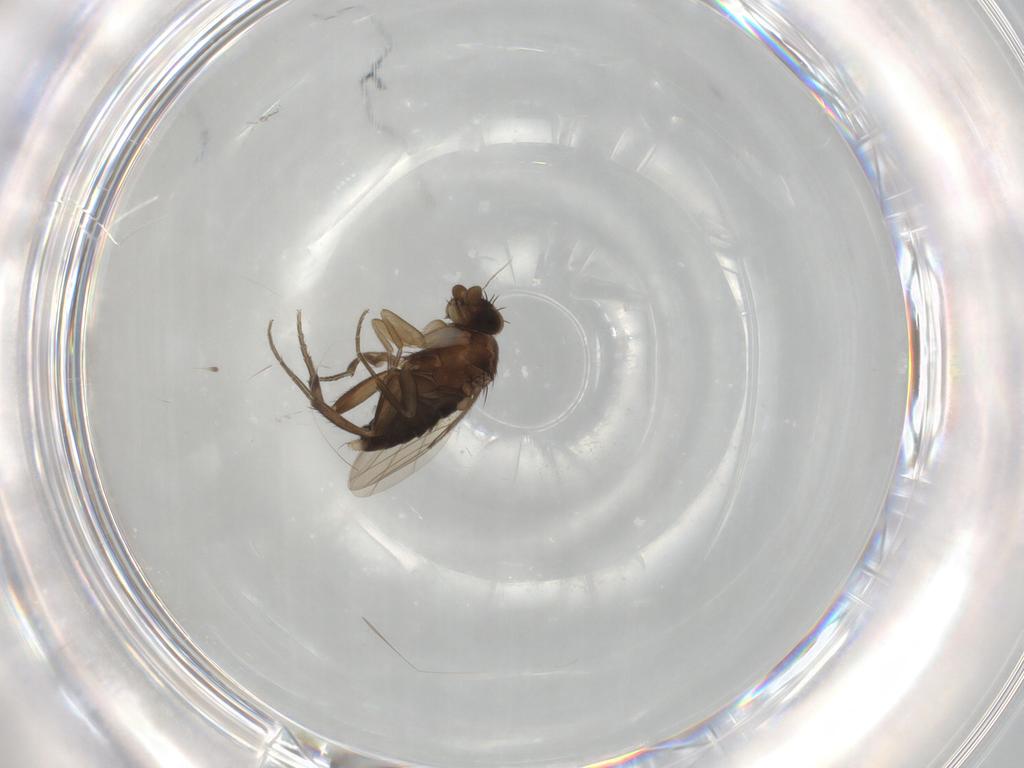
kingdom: Animalia
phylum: Arthropoda
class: Insecta
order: Diptera
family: Phoridae
